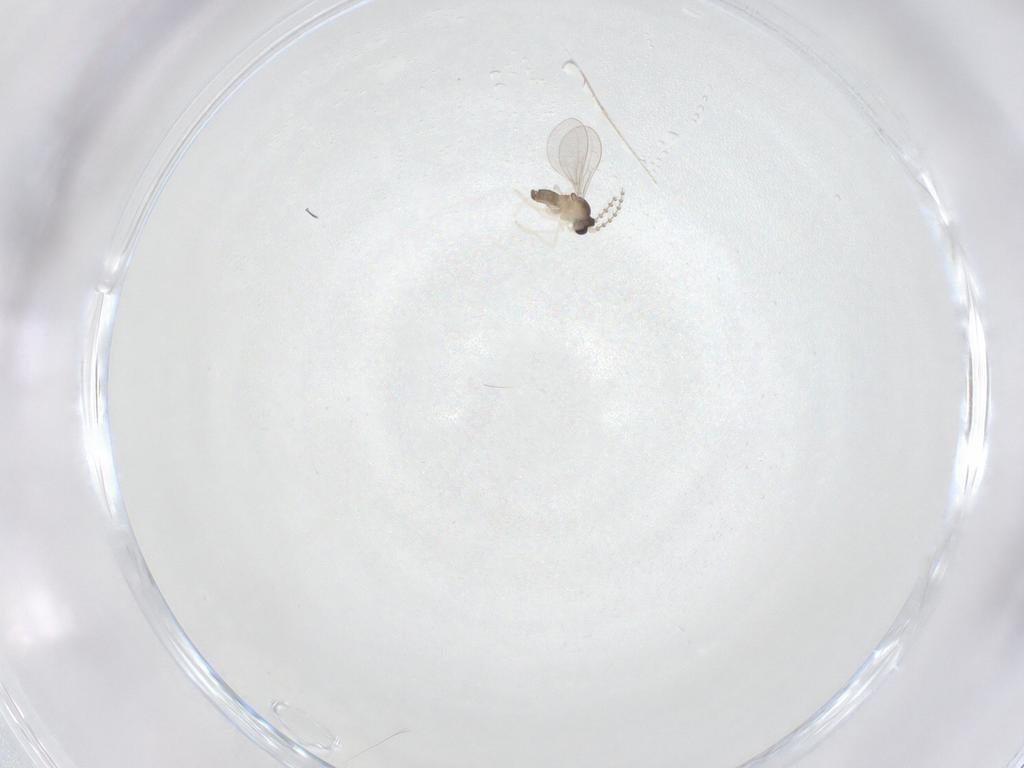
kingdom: Animalia
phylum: Arthropoda
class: Insecta
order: Diptera
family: Cecidomyiidae
